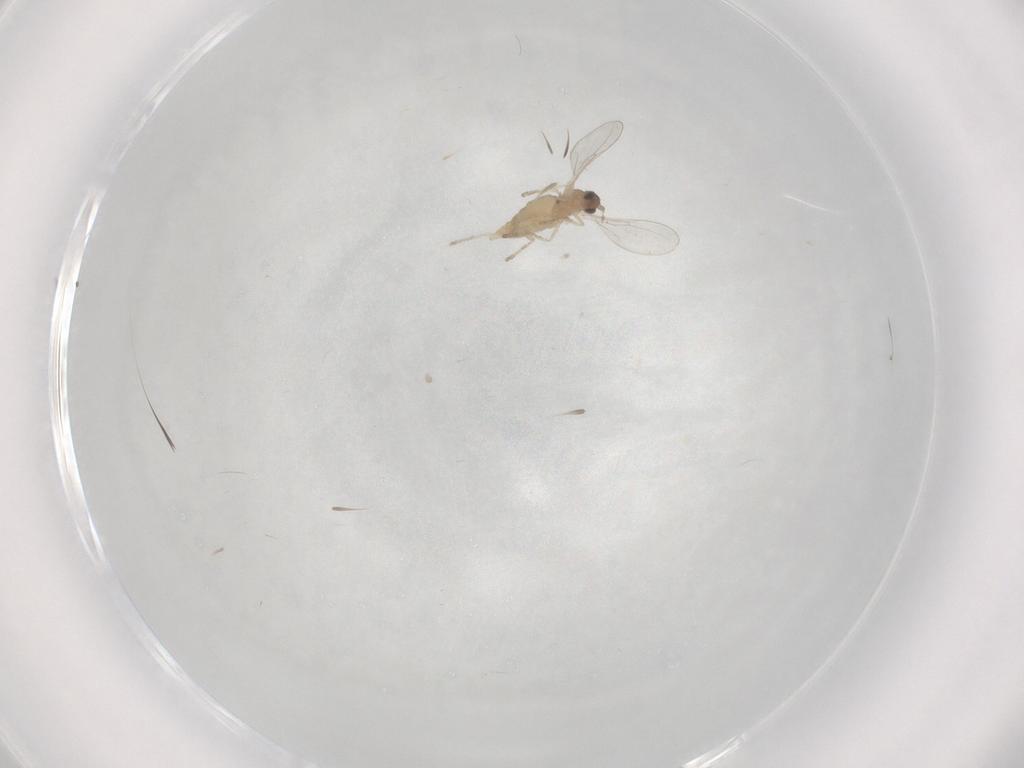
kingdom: Animalia
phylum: Arthropoda
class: Insecta
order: Diptera
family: Cecidomyiidae
